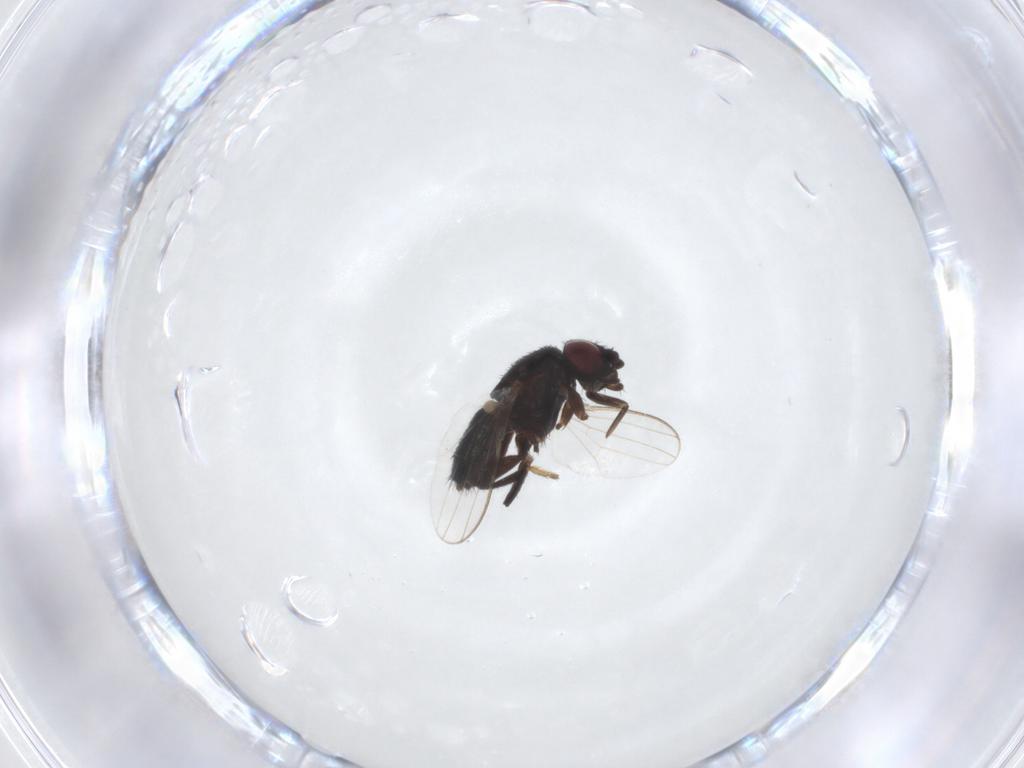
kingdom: Animalia
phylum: Arthropoda
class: Insecta
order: Diptera
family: Milichiidae
